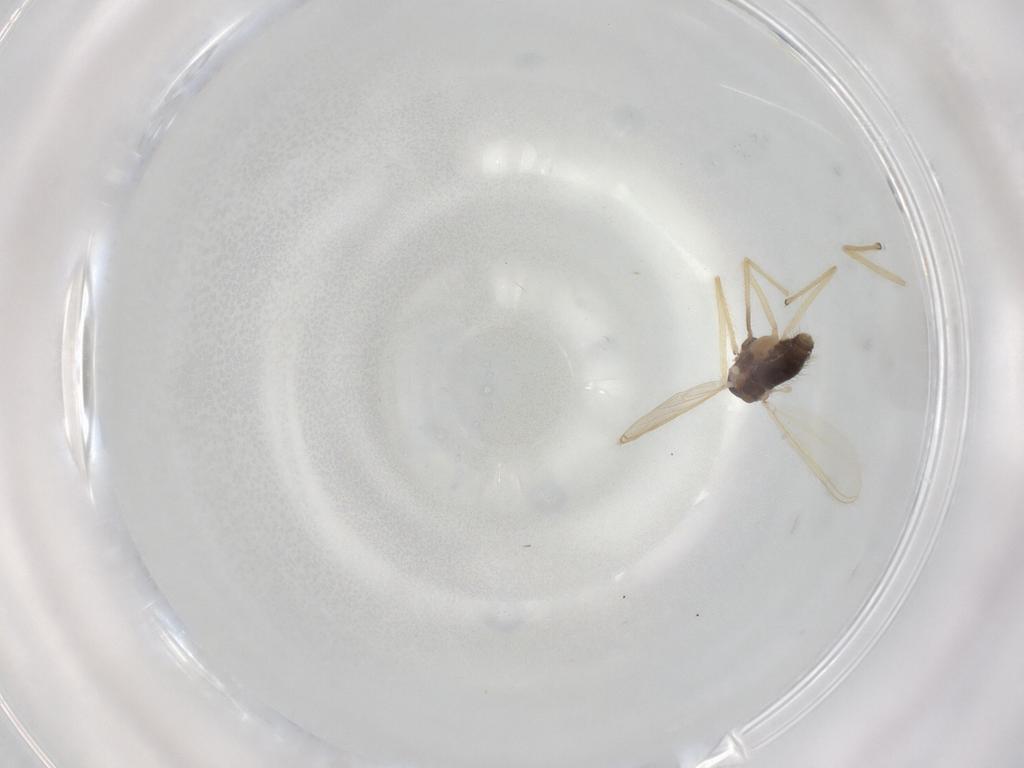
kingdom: Animalia
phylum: Arthropoda
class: Insecta
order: Diptera
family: Chironomidae
